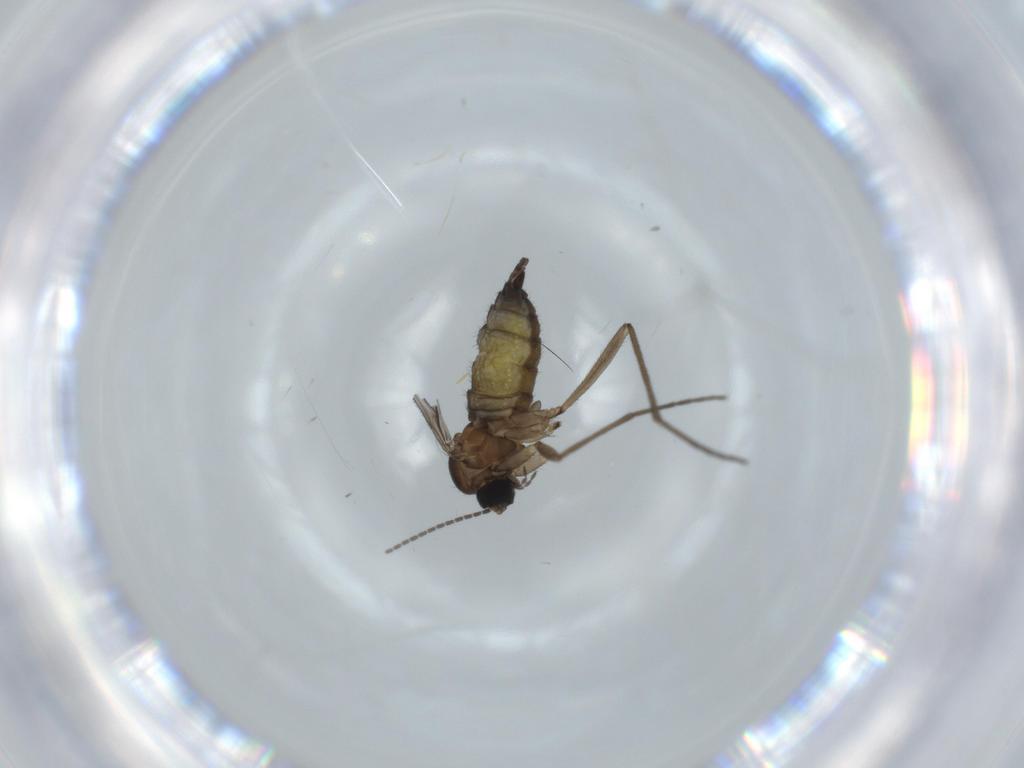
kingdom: Animalia
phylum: Arthropoda
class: Insecta
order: Diptera
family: Sciaridae
